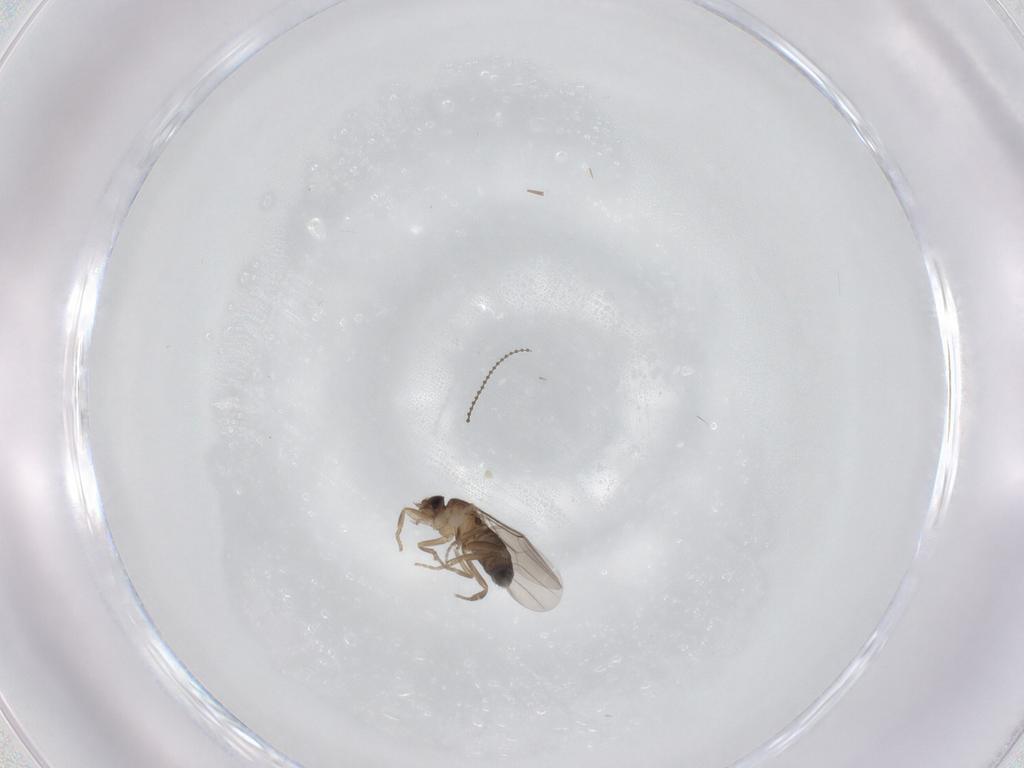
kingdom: Animalia
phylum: Arthropoda
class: Insecta
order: Diptera
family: Phoridae
